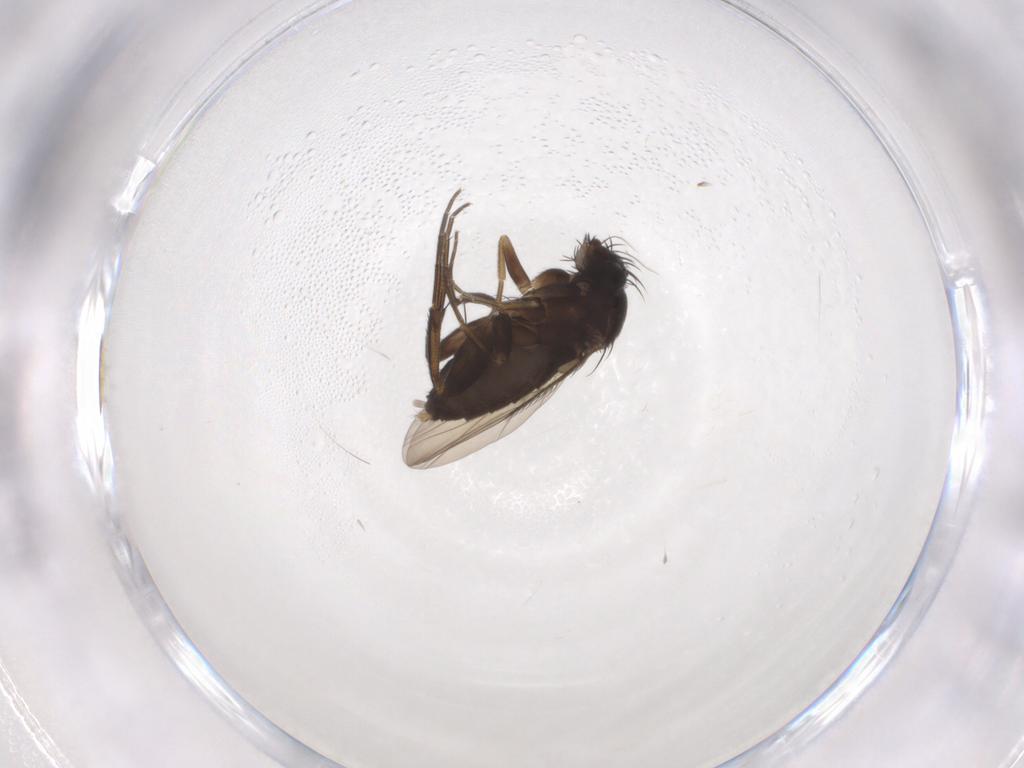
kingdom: Animalia
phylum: Arthropoda
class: Insecta
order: Diptera
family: Phoridae
